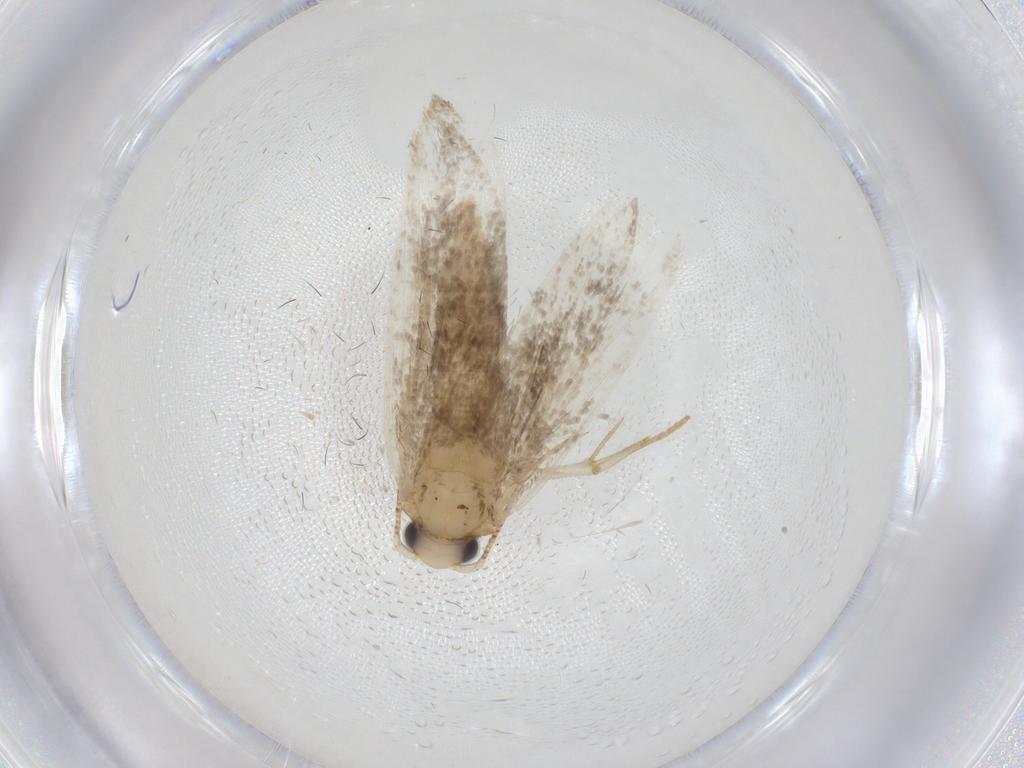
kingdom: Animalia
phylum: Arthropoda
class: Insecta
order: Lepidoptera
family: Tineidae
